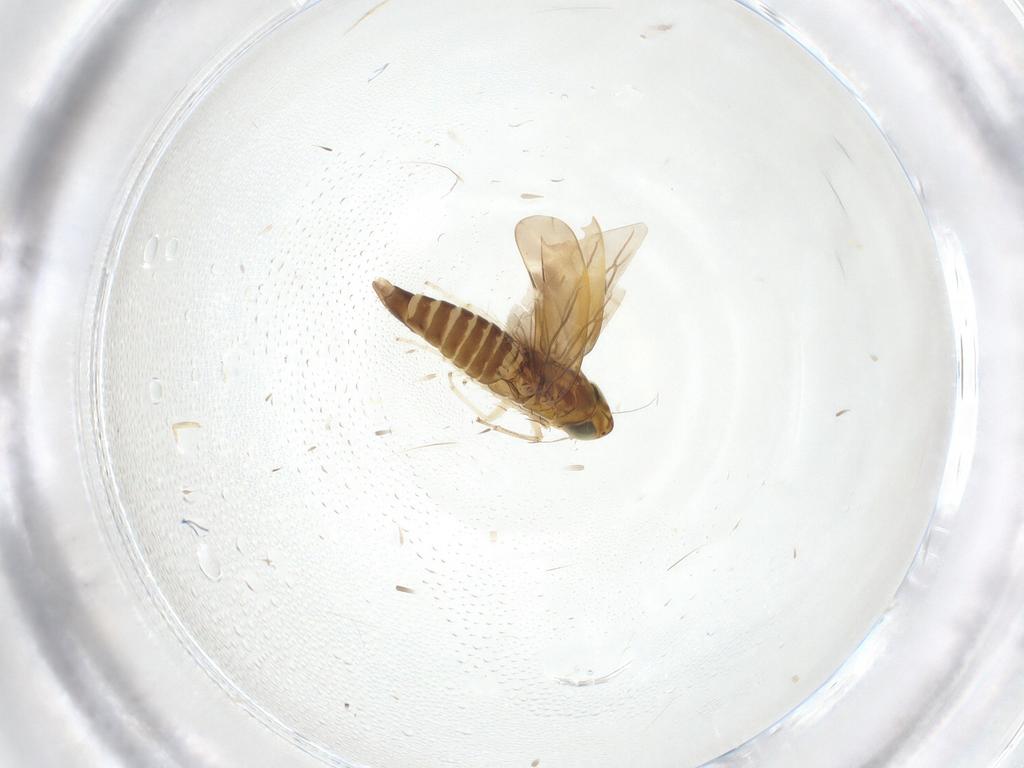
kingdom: Animalia
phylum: Arthropoda
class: Insecta
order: Hemiptera
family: Cicadellidae
